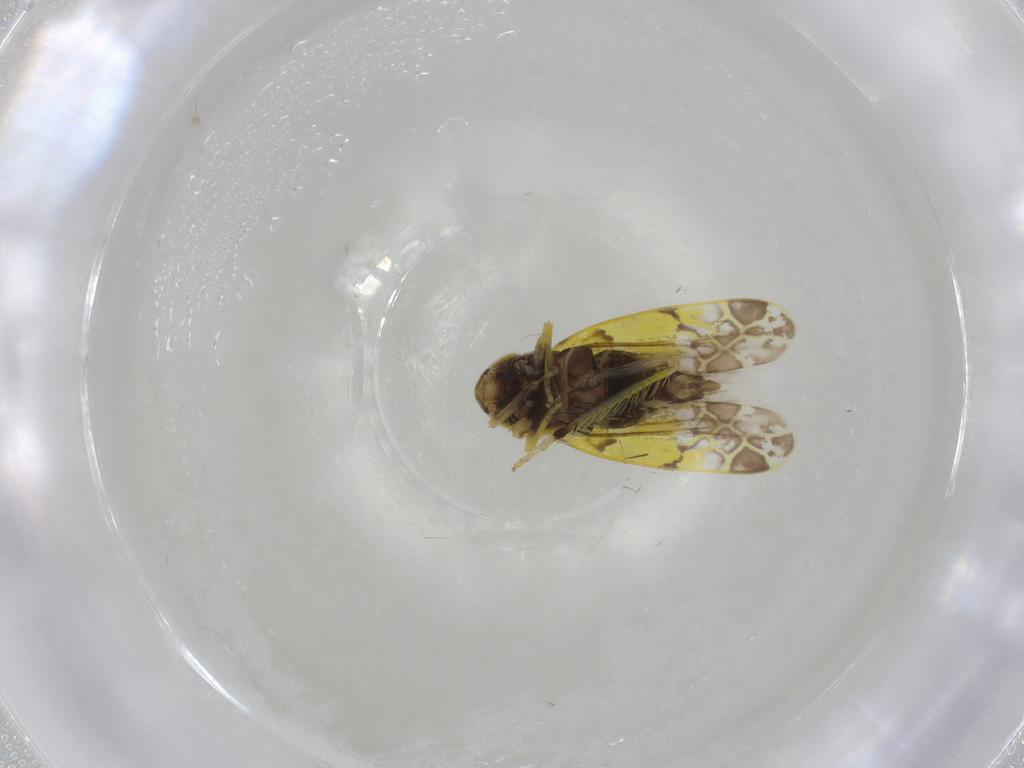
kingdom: Animalia
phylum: Arthropoda
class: Insecta
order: Hemiptera
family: Cicadellidae
